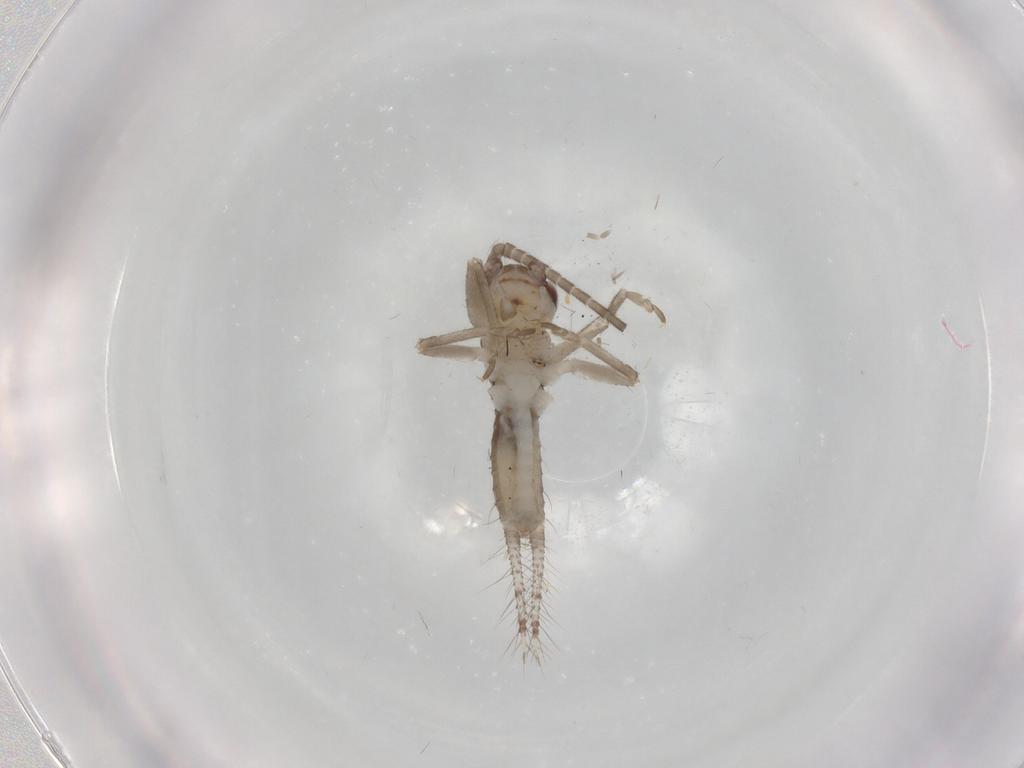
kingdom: Animalia
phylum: Arthropoda
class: Insecta
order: Orthoptera
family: Gryllidae
